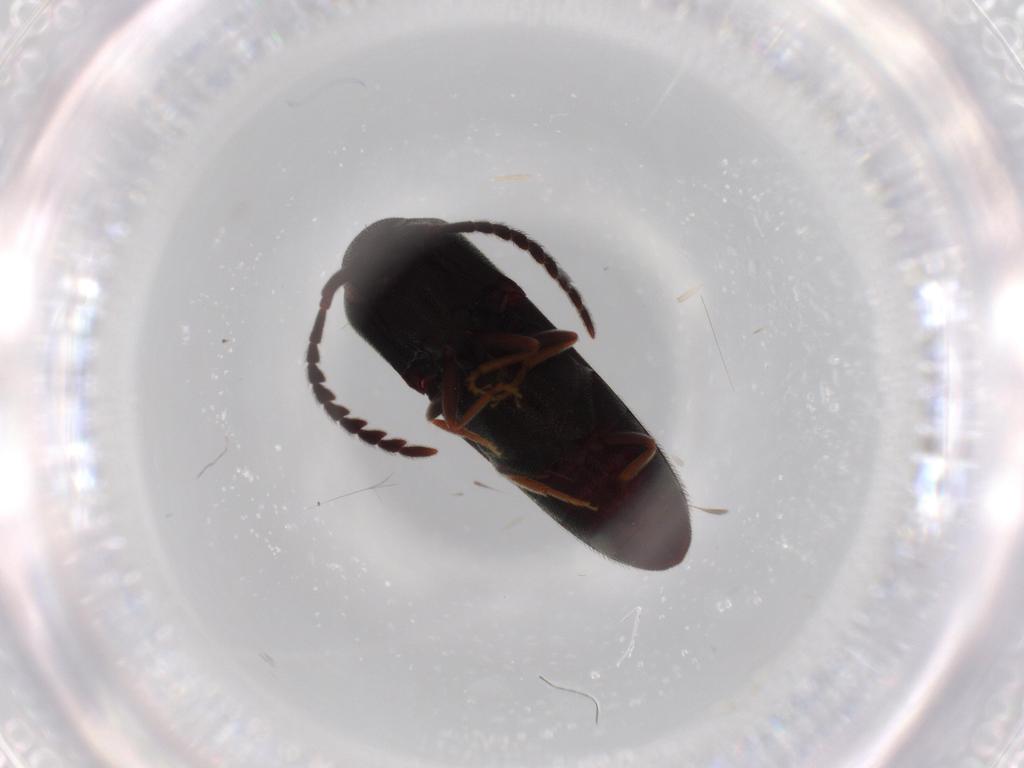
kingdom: Animalia
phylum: Arthropoda
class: Insecta
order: Coleoptera
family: Eucnemidae
